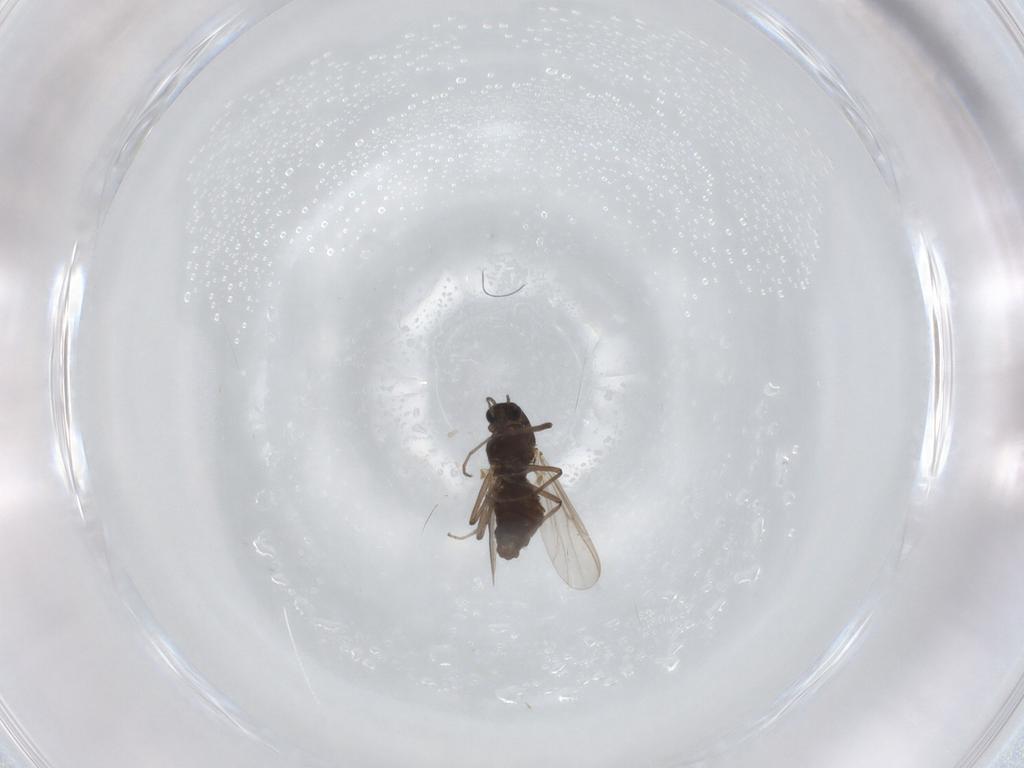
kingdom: Animalia
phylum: Arthropoda
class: Insecta
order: Diptera
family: Chironomidae
